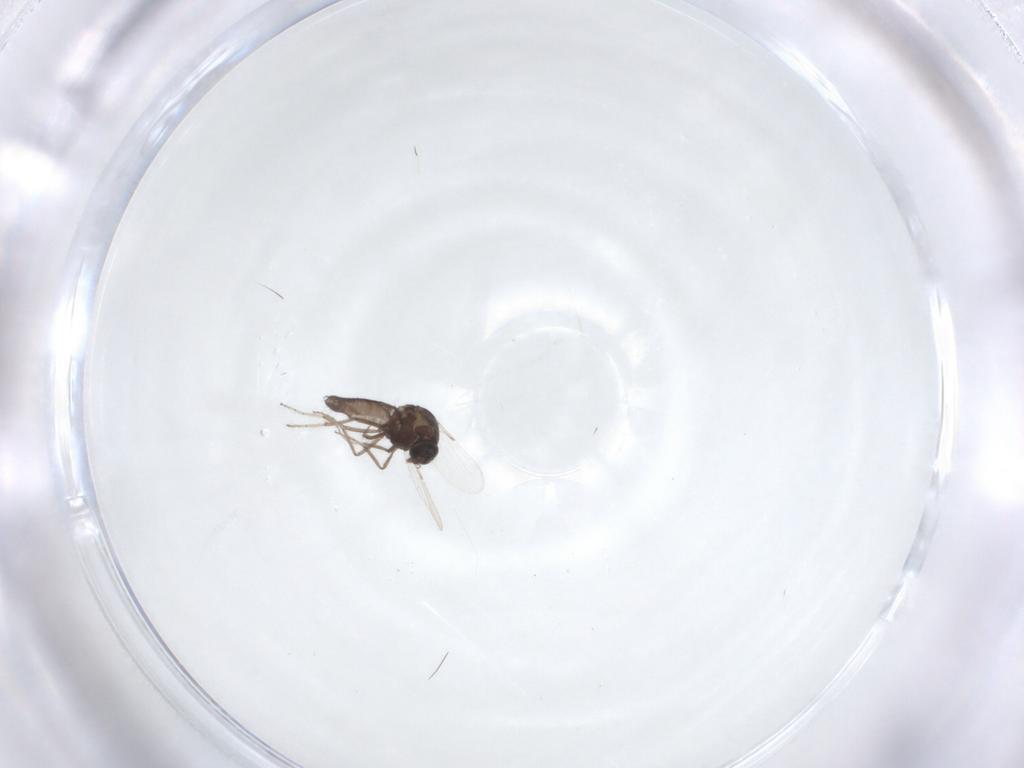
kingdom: Animalia
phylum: Arthropoda
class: Insecta
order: Diptera
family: Ceratopogonidae
